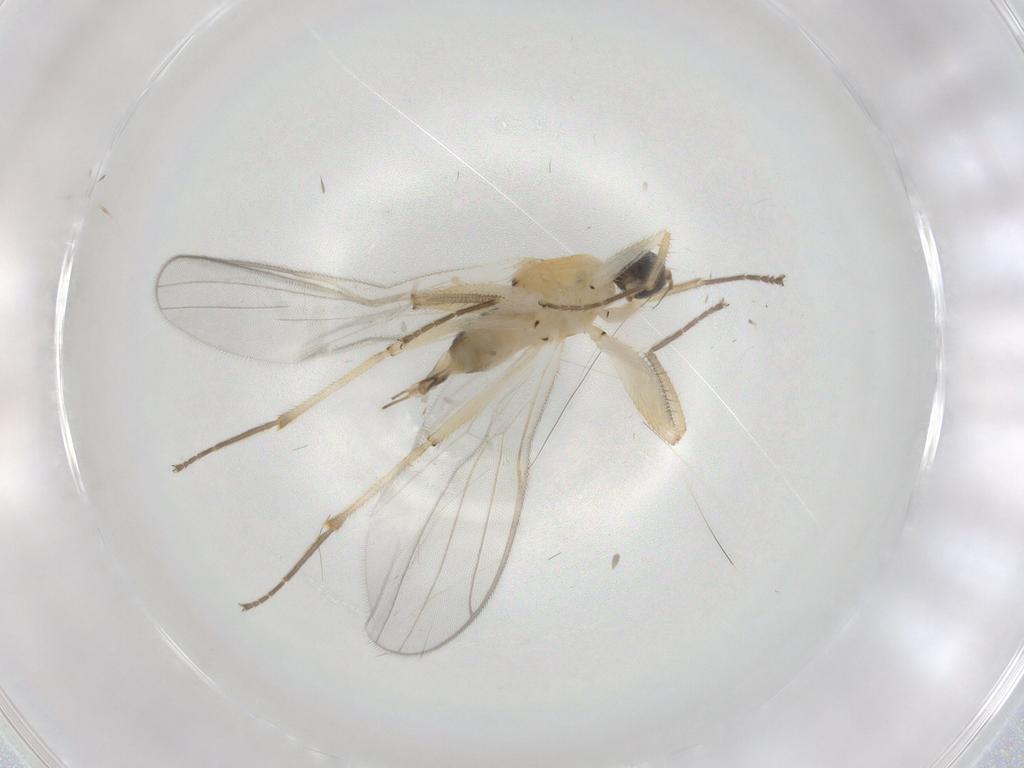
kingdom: Animalia
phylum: Arthropoda
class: Insecta
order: Diptera
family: Hybotidae
